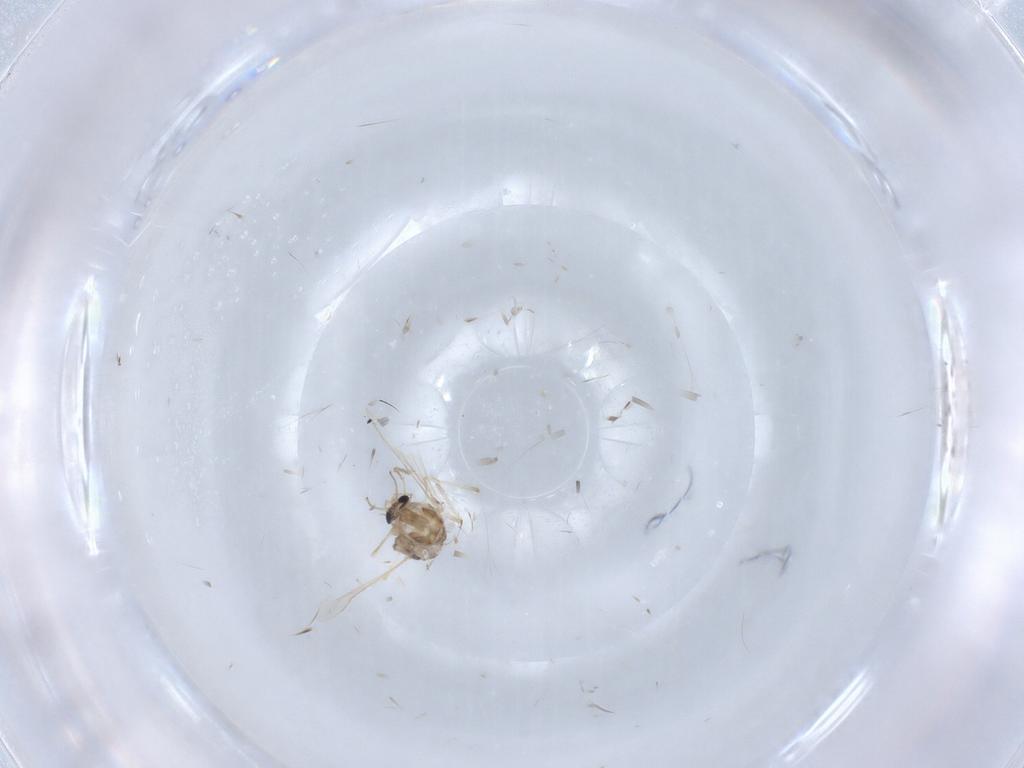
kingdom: Animalia
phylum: Arthropoda
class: Insecta
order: Diptera
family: Chironomidae
